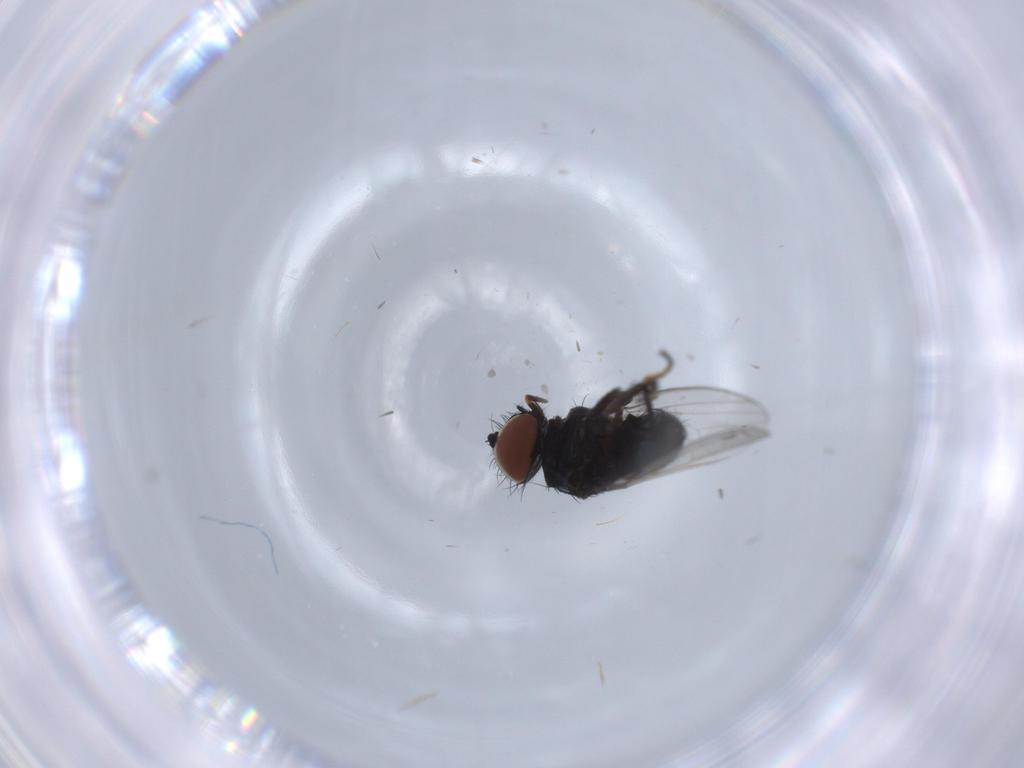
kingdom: Animalia
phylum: Arthropoda
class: Insecta
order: Diptera
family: Milichiidae
